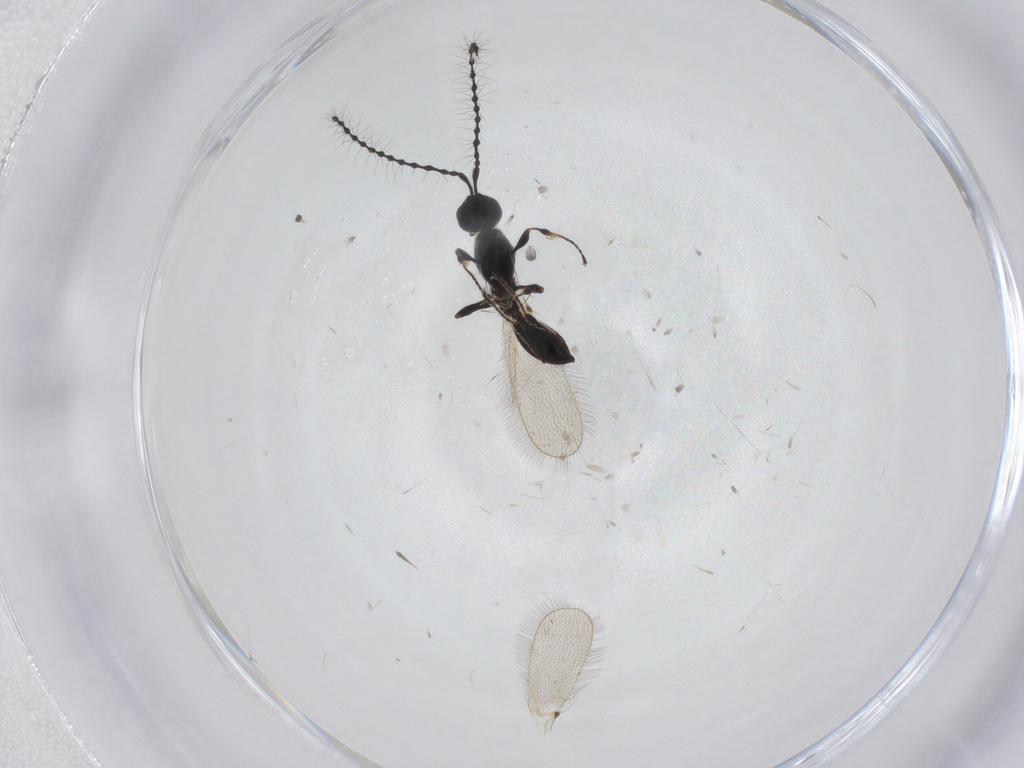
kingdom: Animalia
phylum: Arthropoda
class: Insecta
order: Hymenoptera
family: Diapriidae
